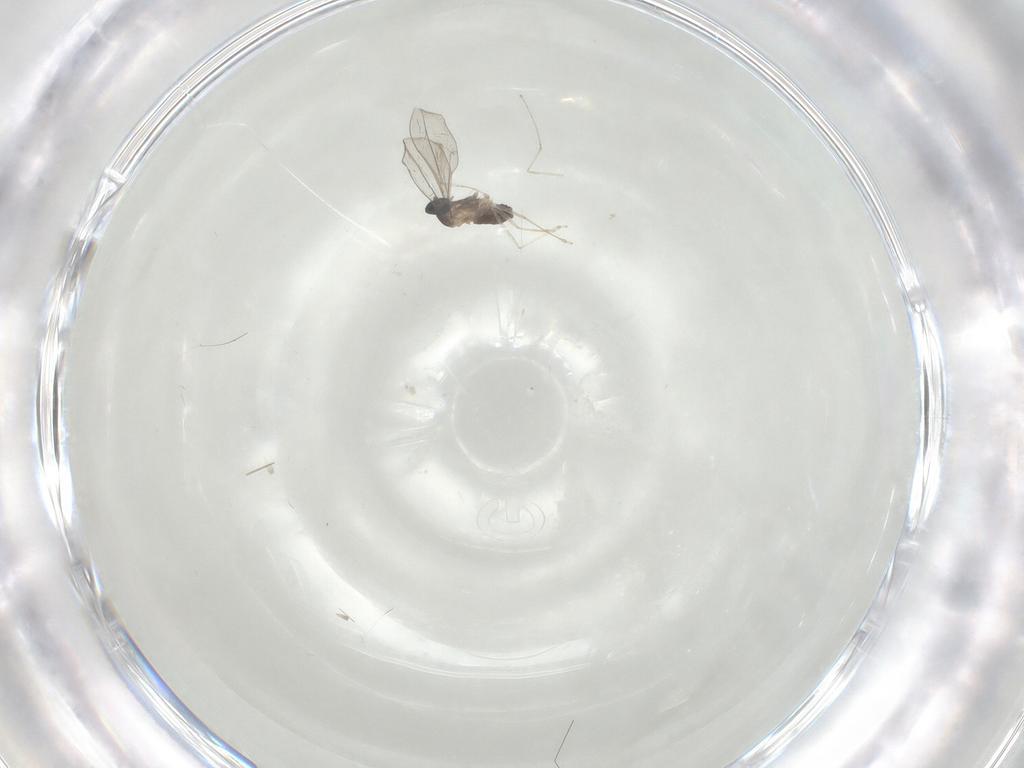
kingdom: Animalia
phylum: Arthropoda
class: Insecta
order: Diptera
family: Cecidomyiidae
